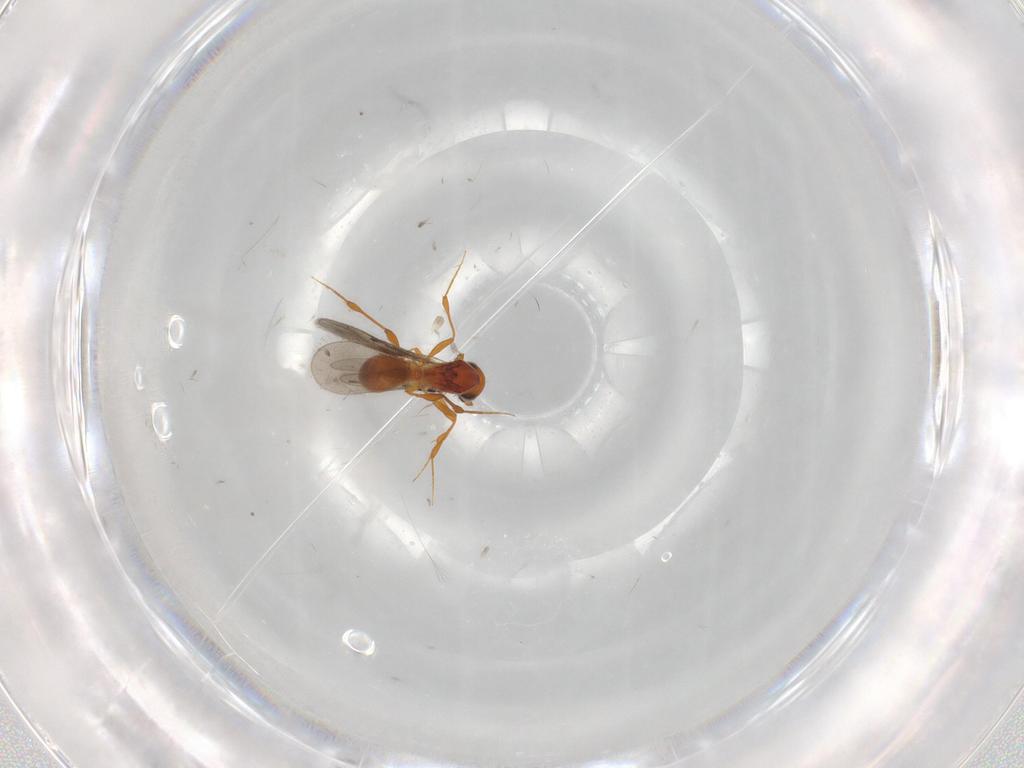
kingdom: Animalia
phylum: Arthropoda
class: Insecta
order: Hymenoptera
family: Platygastridae
